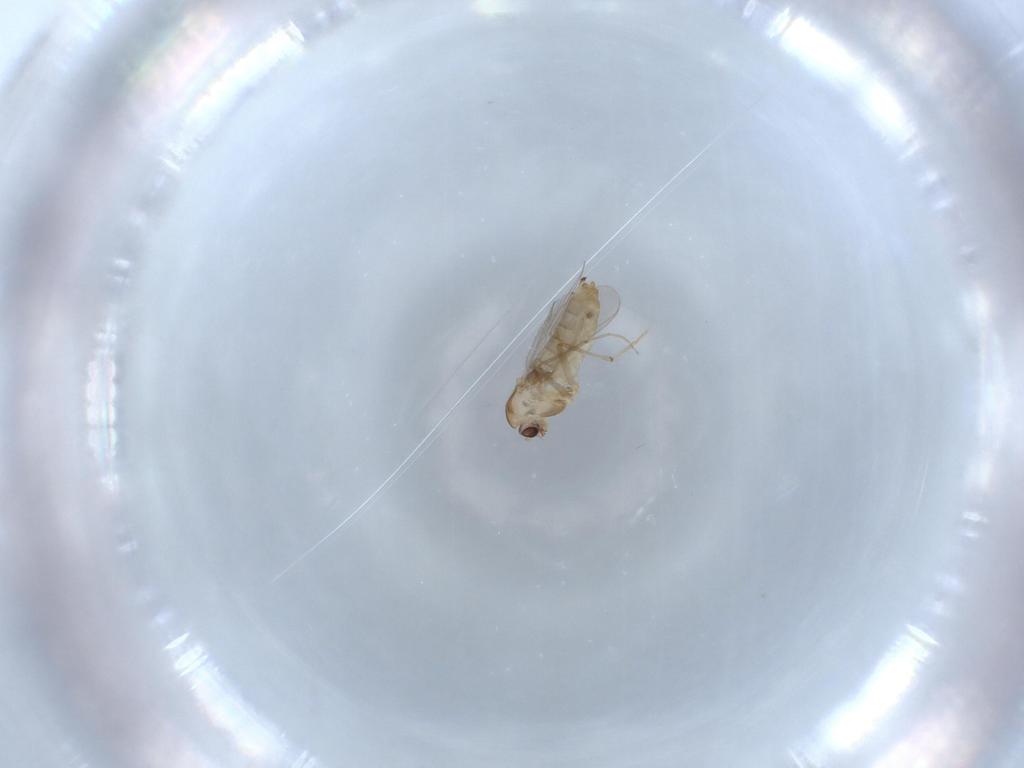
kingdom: Animalia
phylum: Arthropoda
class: Insecta
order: Diptera
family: Chironomidae
